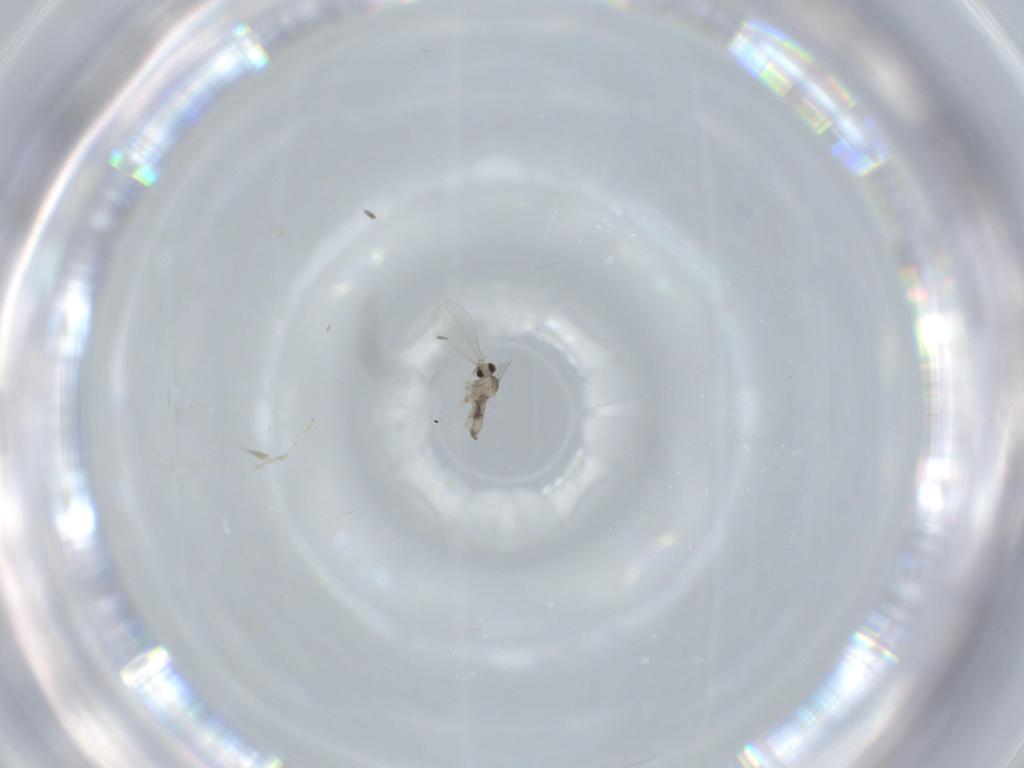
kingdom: Animalia
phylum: Arthropoda
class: Insecta
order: Diptera
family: Cecidomyiidae
